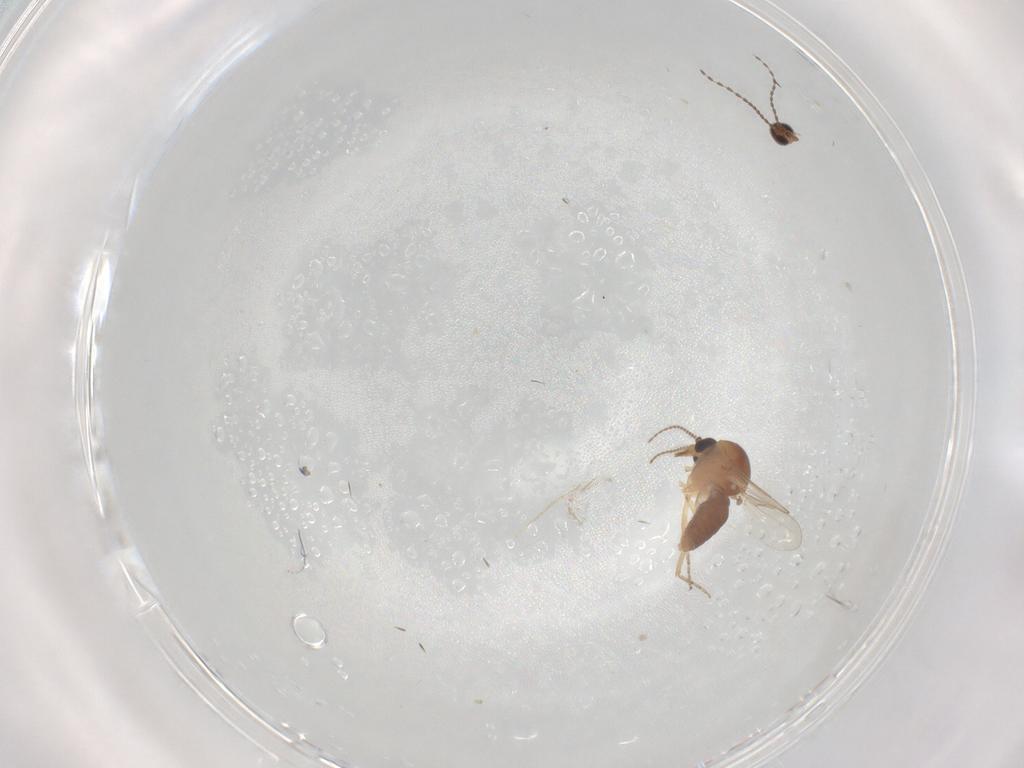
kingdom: Animalia
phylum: Arthropoda
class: Insecta
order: Diptera
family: Ceratopogonidae
